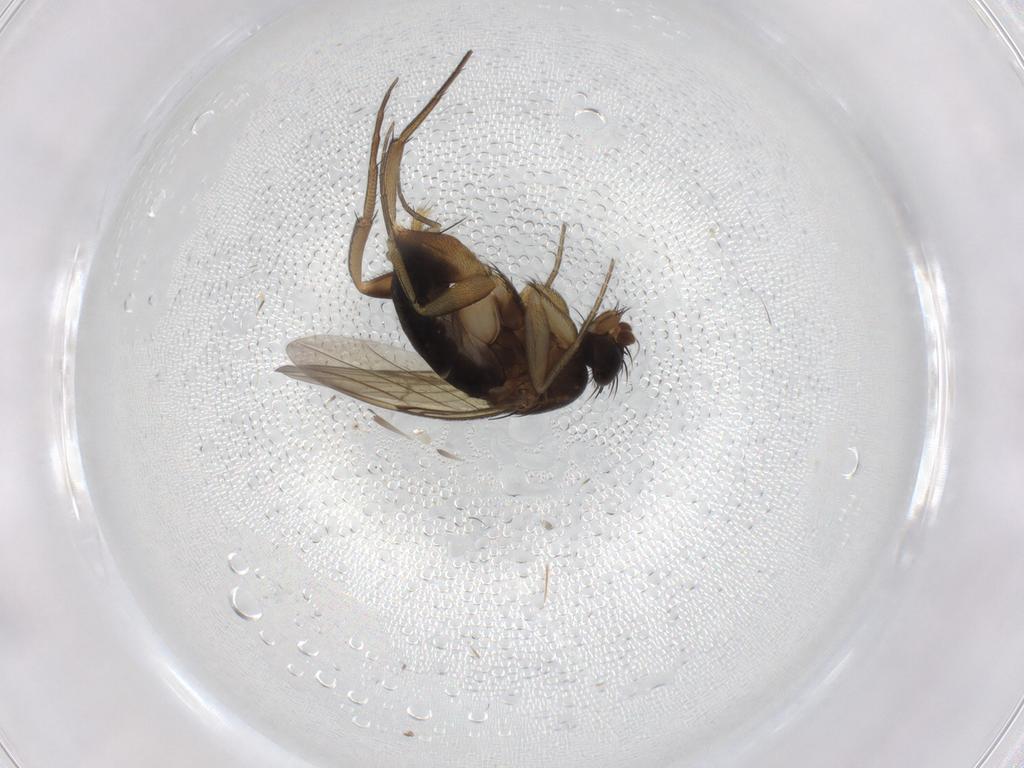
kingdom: Animalia
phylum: Arthropoda
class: Insecta
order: Diptera
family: Phoridae
